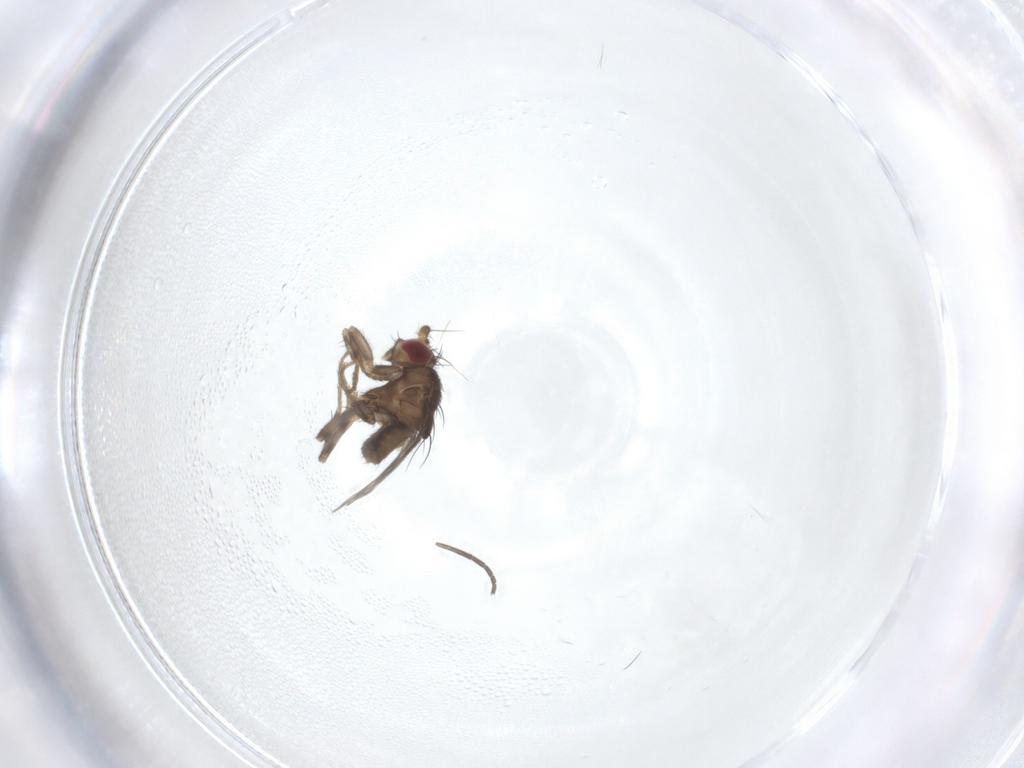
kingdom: Animalia
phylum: Arthropoda
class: Insecta
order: Diptera
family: Sphaeroceridae
